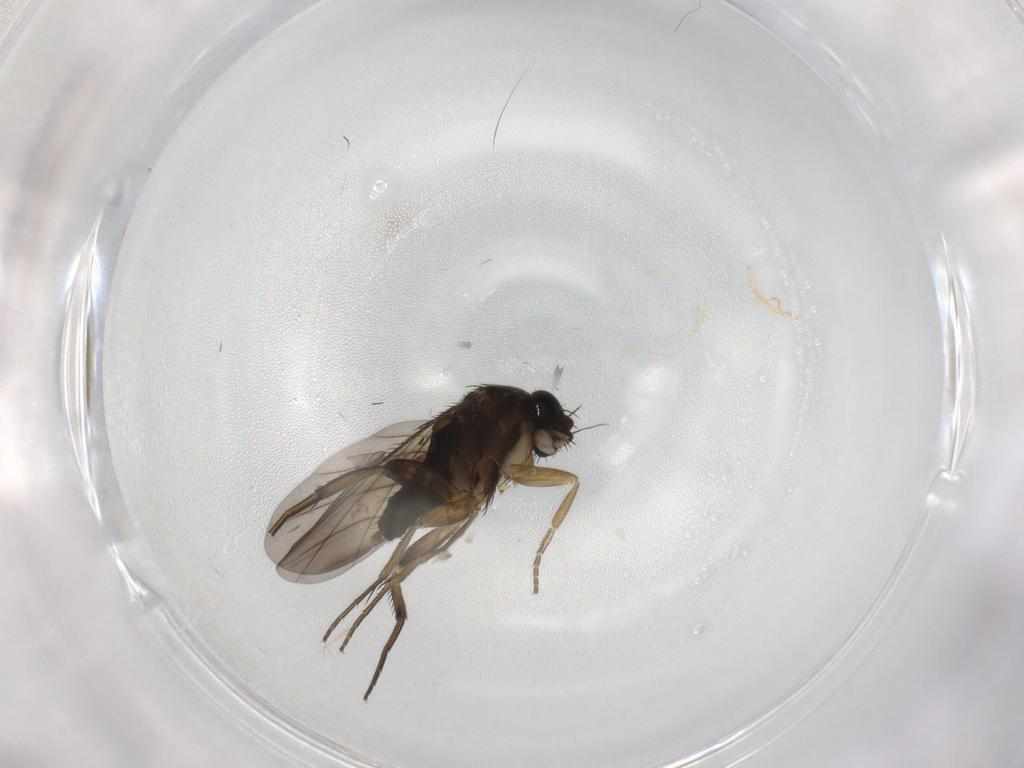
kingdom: Animalia
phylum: Arthropoda
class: Insecta
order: Diptera
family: Phoridae
